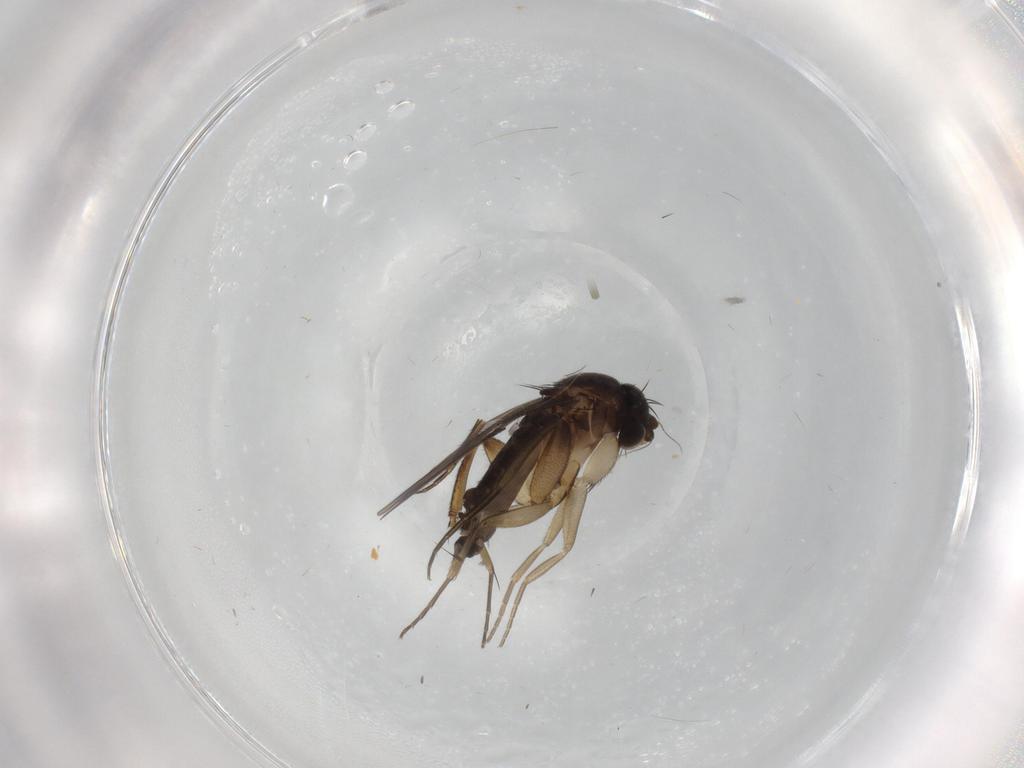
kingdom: Animalia
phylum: Arthropoda
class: Insecta
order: Diptera
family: Phoridae
